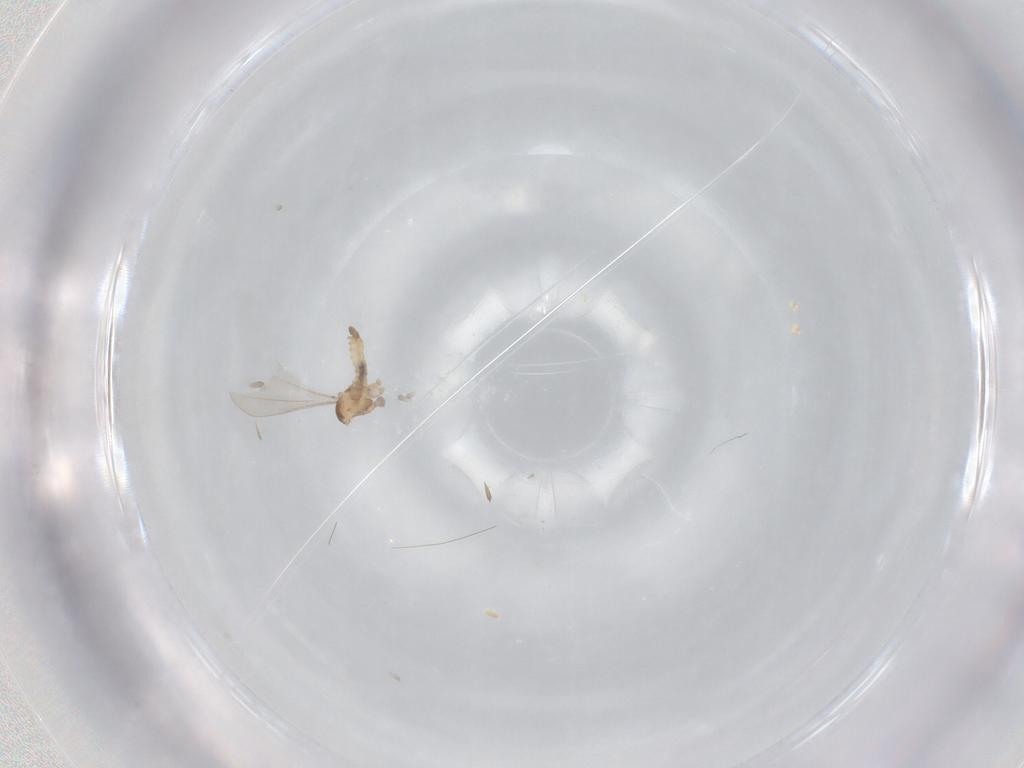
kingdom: Animalia
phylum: Arthropoda
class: Insecta
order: Diptera
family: Cecidomyiidae
